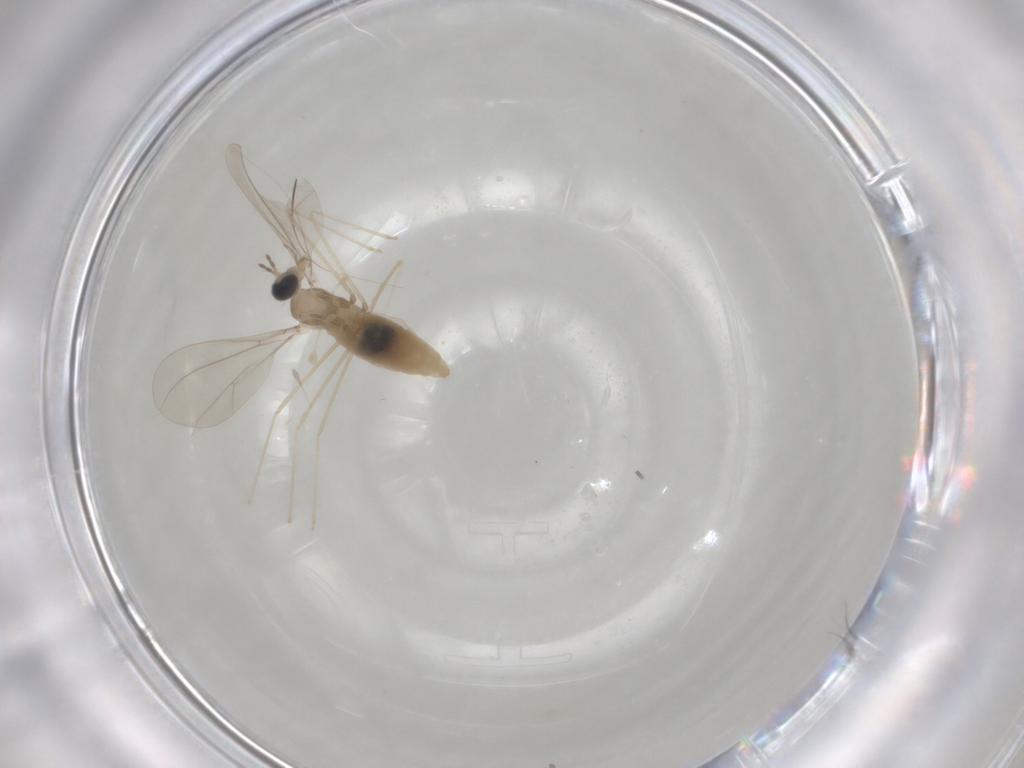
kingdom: Animalia
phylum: Arthropoda
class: Insecta
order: Diptera
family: Cecidomyiidae
